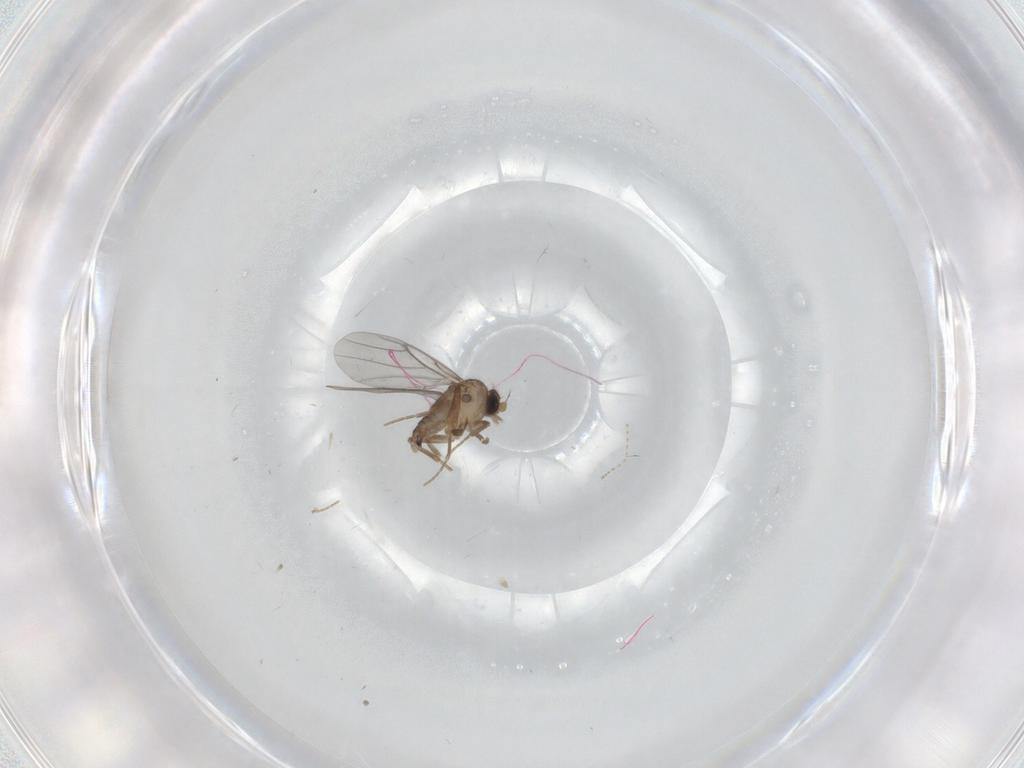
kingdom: Animalia
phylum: Arthropoda
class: Insecta
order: Diptera
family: Psychodidae
